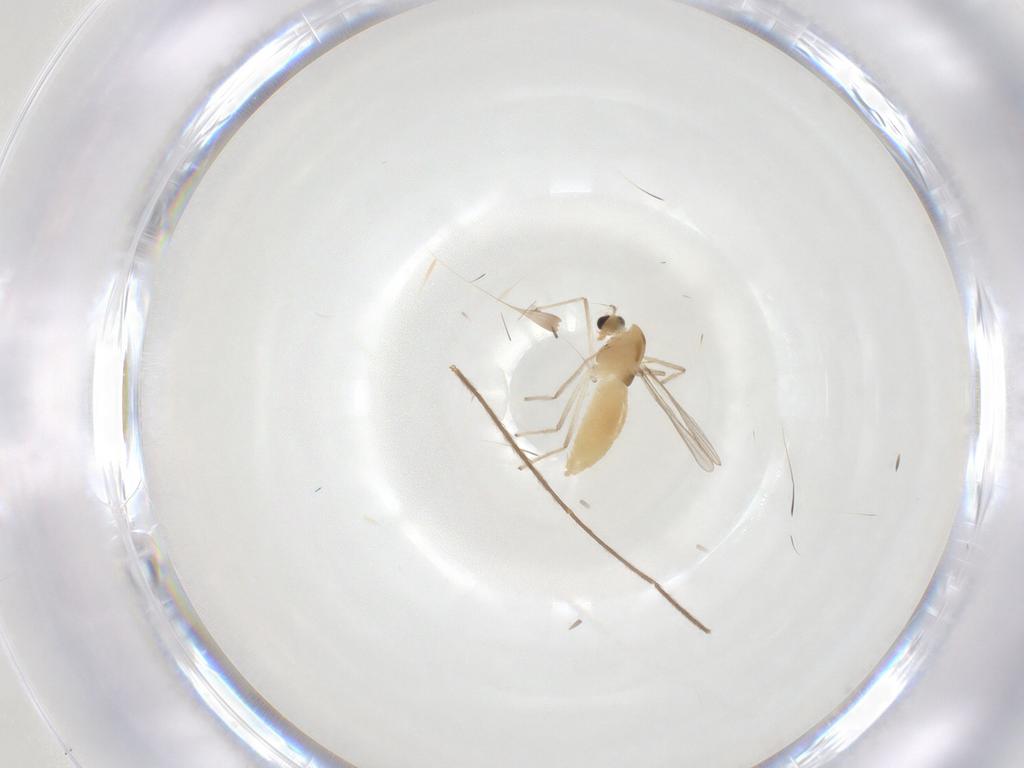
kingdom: Animalia
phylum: Arthropoda
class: Insecta
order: Diptera
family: Chironomidae
